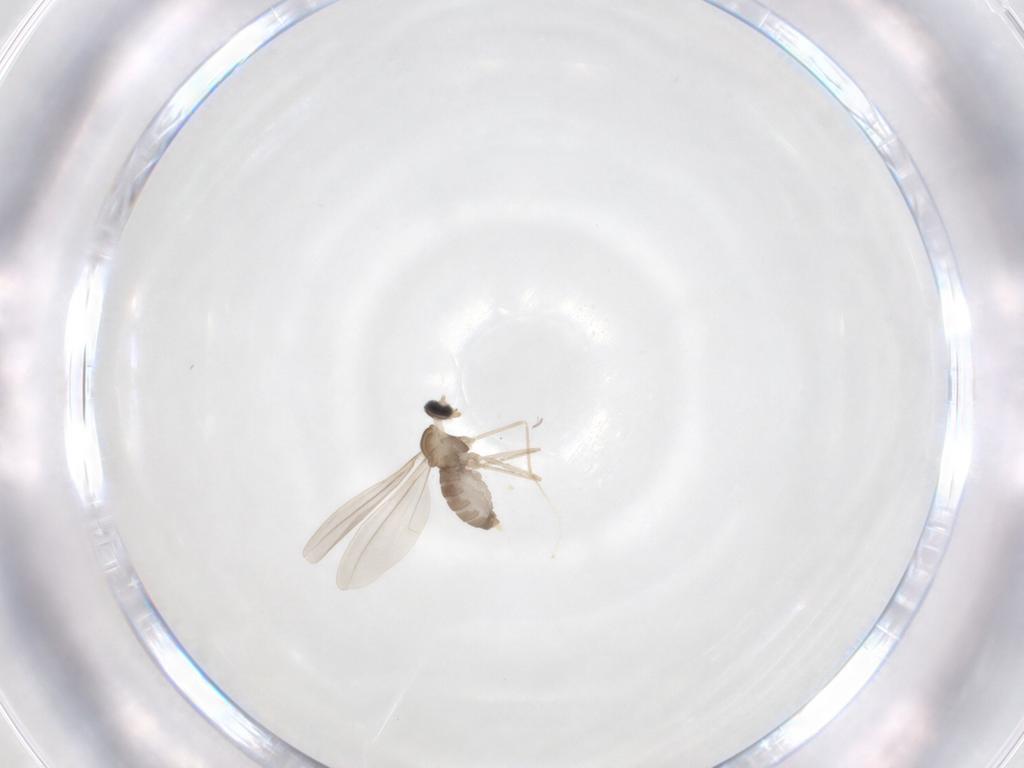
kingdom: Animalia
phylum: Arthropoda
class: Insecta
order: Diptera
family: Cecidomyiidae
